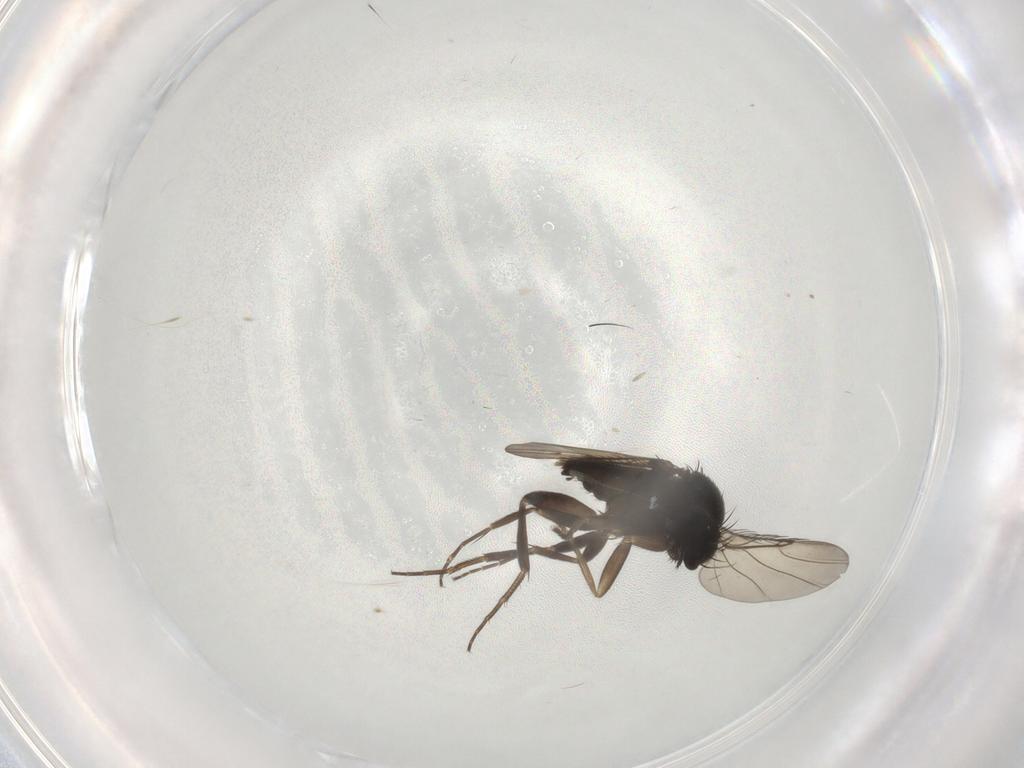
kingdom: Animalia
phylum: Arthropoda
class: Insecta
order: Diptera
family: Phoridae
